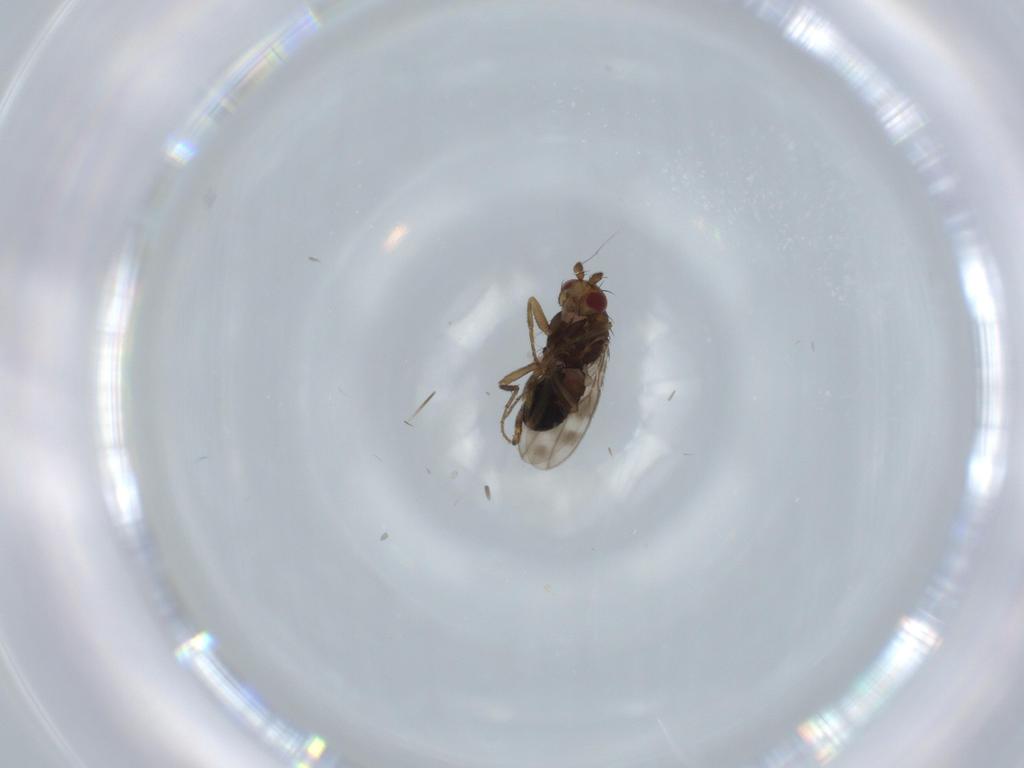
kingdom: Animalia
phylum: Arthropoda
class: Insecta
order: Diptera
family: Sphaeroceridae
